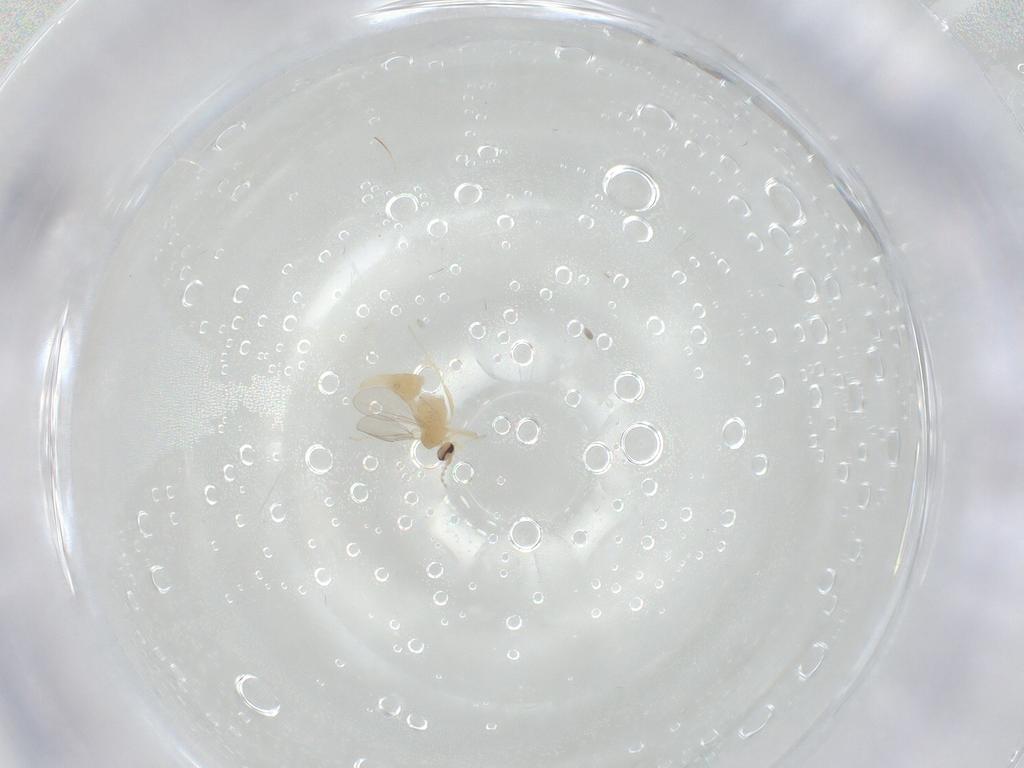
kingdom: Animalia
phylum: Arthropoda
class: Insecta
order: Diptera
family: Cecidomyiidae
